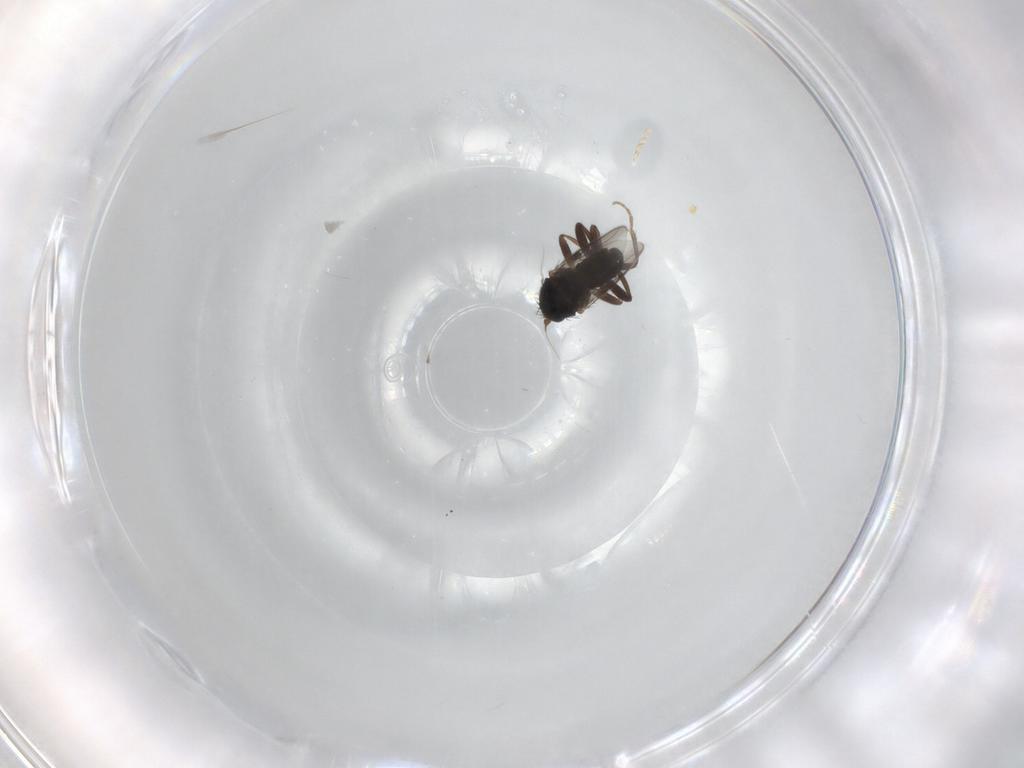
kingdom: Animalia
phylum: Arthropoda
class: Insecta
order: Diptera
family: Sphaeroceridae
